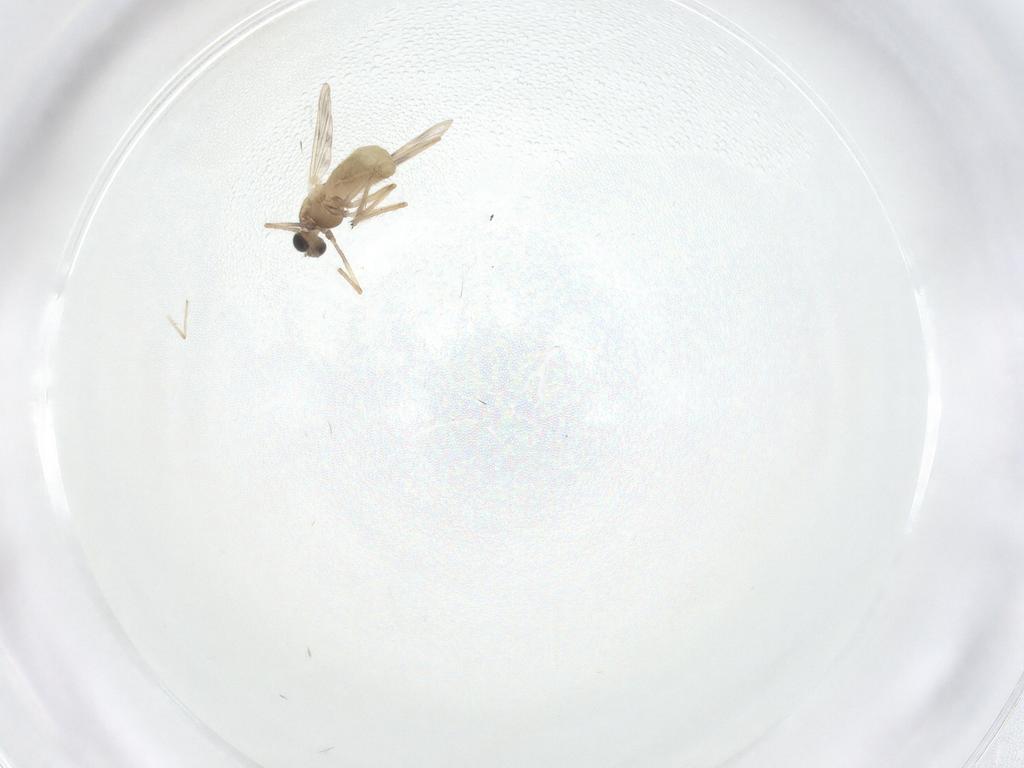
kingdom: Animalia
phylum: Arthropoda
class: Insecta
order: Diptera
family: Chironomidae
